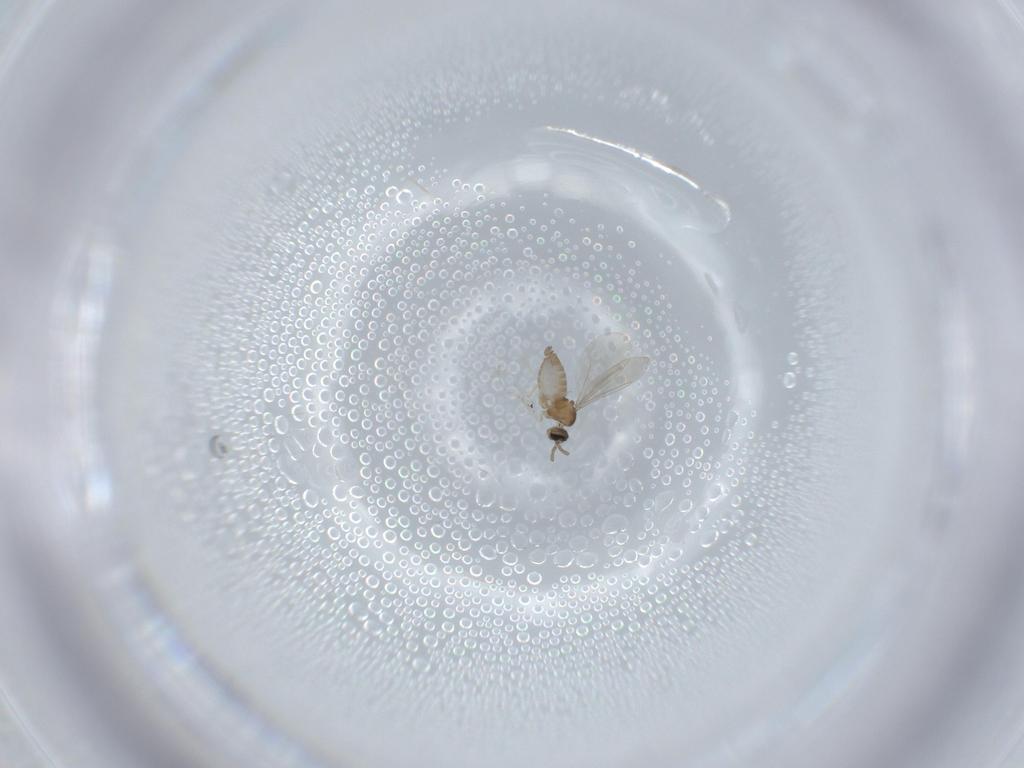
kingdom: Animalia
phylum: Arthropoda
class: Insecta
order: Diptera
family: Cecidomyiidae
